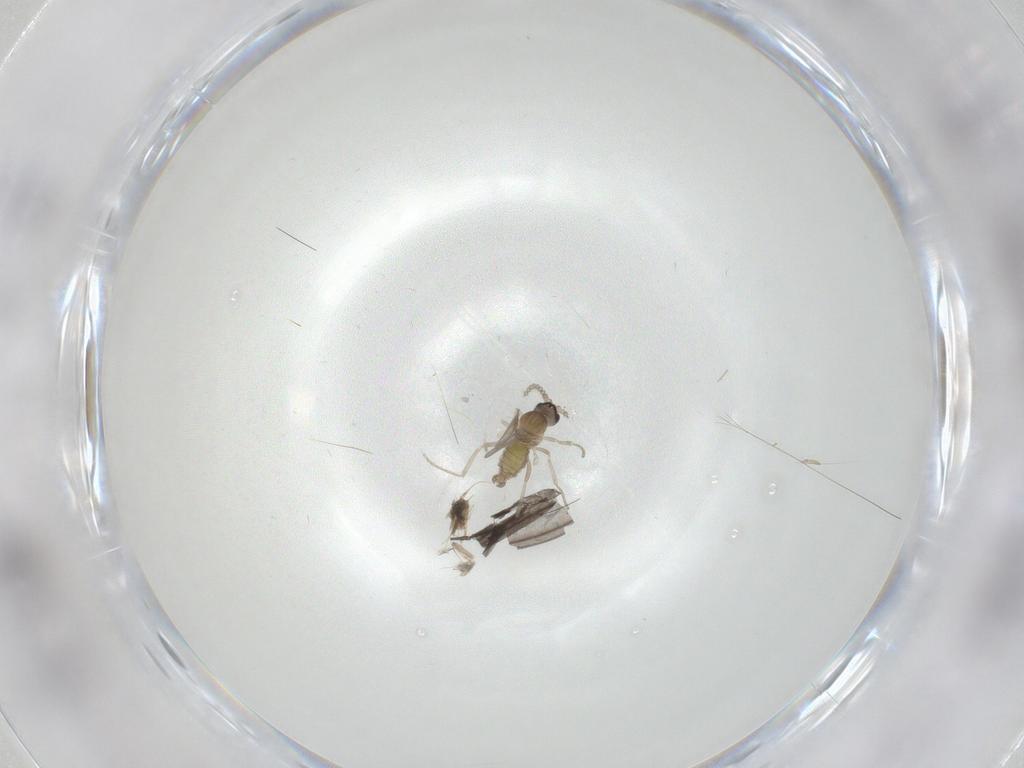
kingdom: Animalia
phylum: Arthropoda
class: Insecta
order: Diptera
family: Cecidomyiidae
